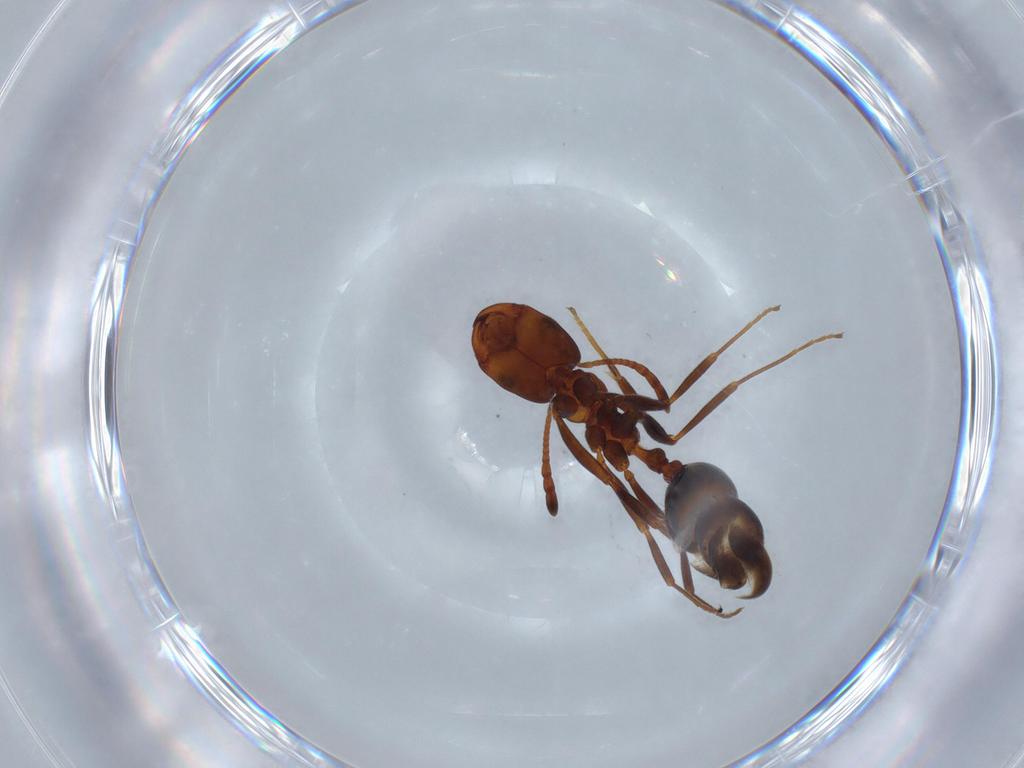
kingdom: Animalia
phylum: Arthropoda
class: Insecta
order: Hymenoptera
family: Formicidae
